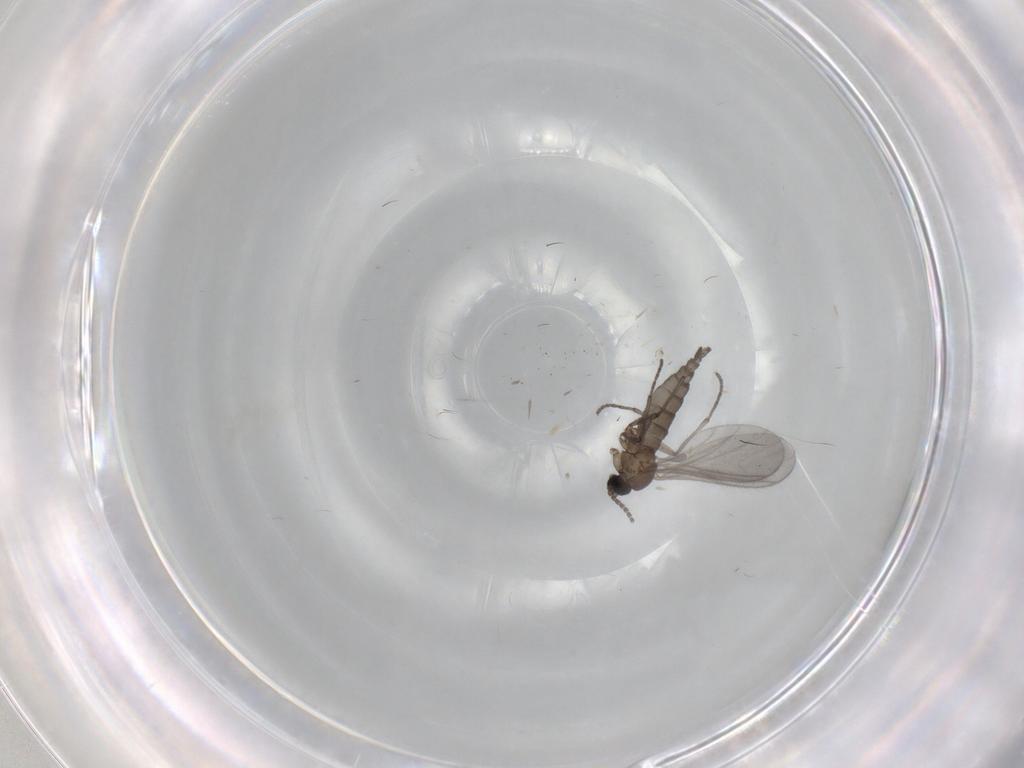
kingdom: Animalia
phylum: Arthropoda
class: Insecta
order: Diptera
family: Sciaridae
